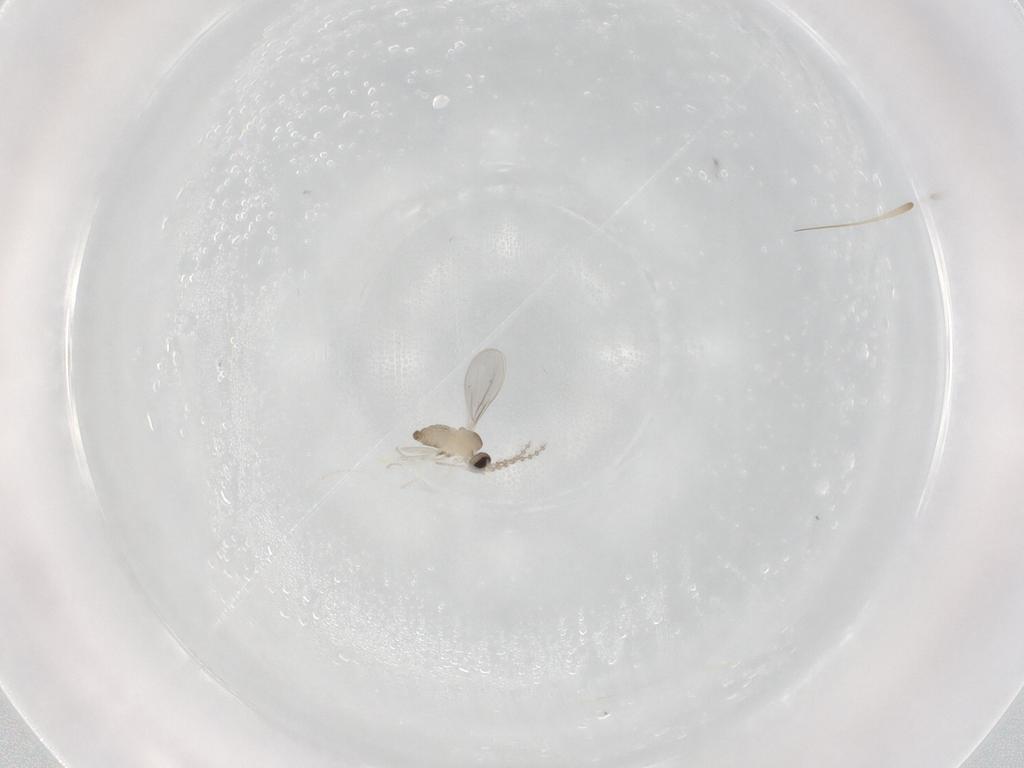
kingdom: Animalia
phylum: Arthropoda
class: Insecta
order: Diptera
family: Cecidomyiidae
